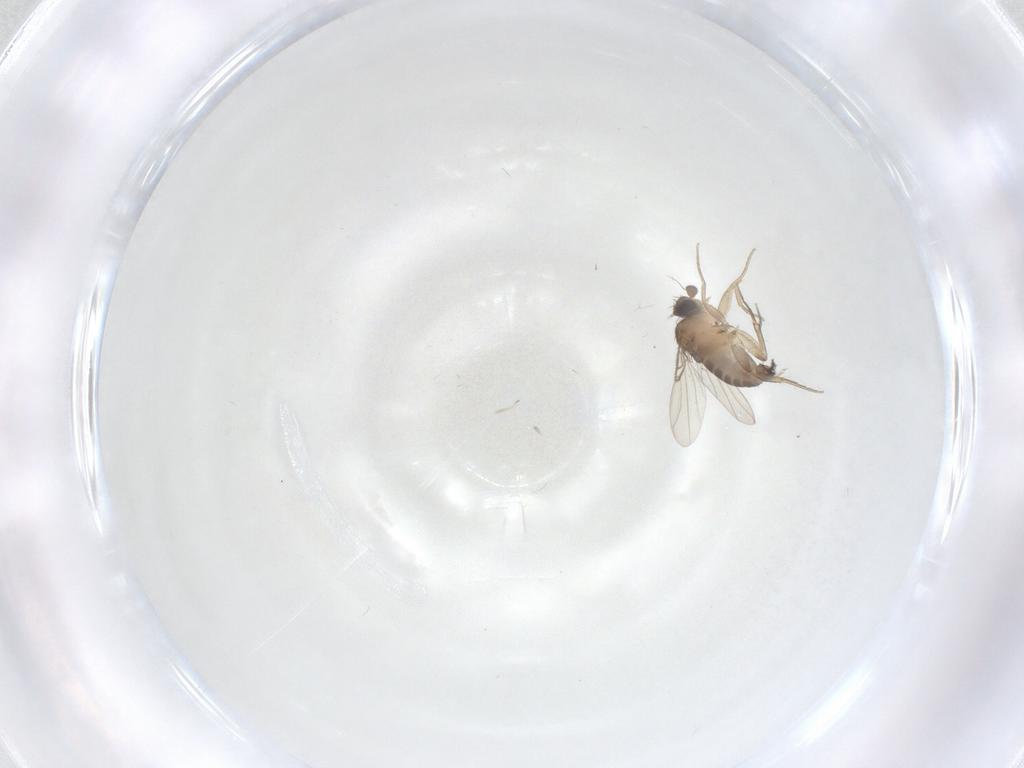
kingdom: Animalia
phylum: Arthropoda
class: Insecta
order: Diptera
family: Phoridae
